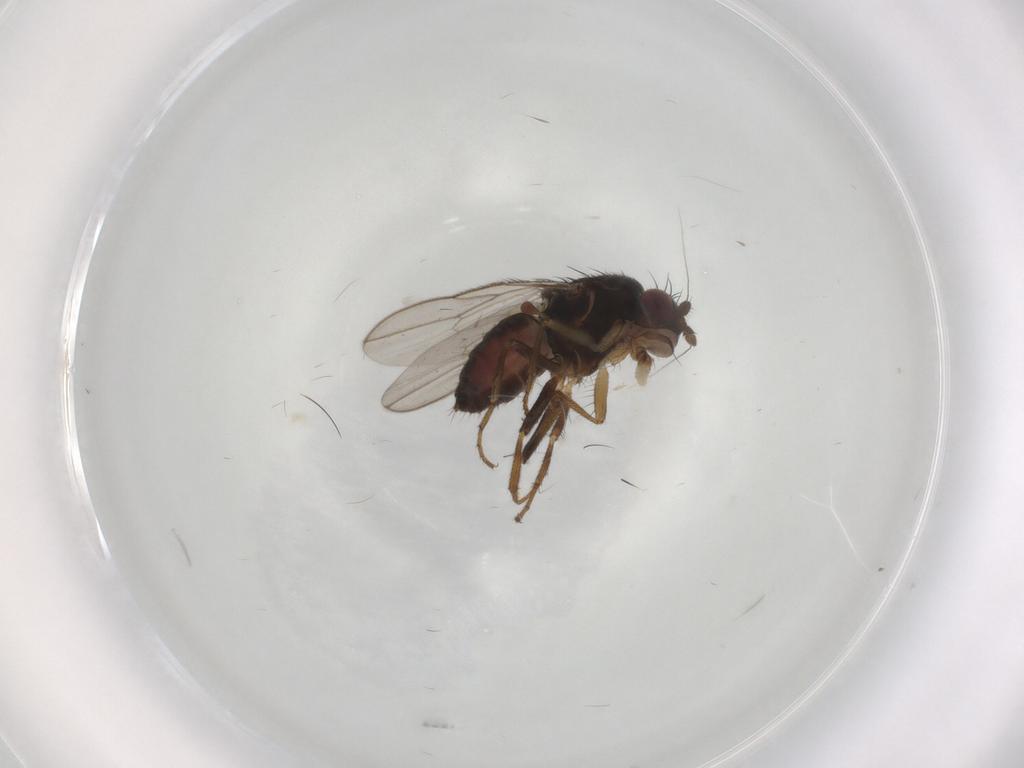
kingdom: Animalia
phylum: Arthropoda
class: Insecta
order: Diptera
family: Sphaeroceridae
